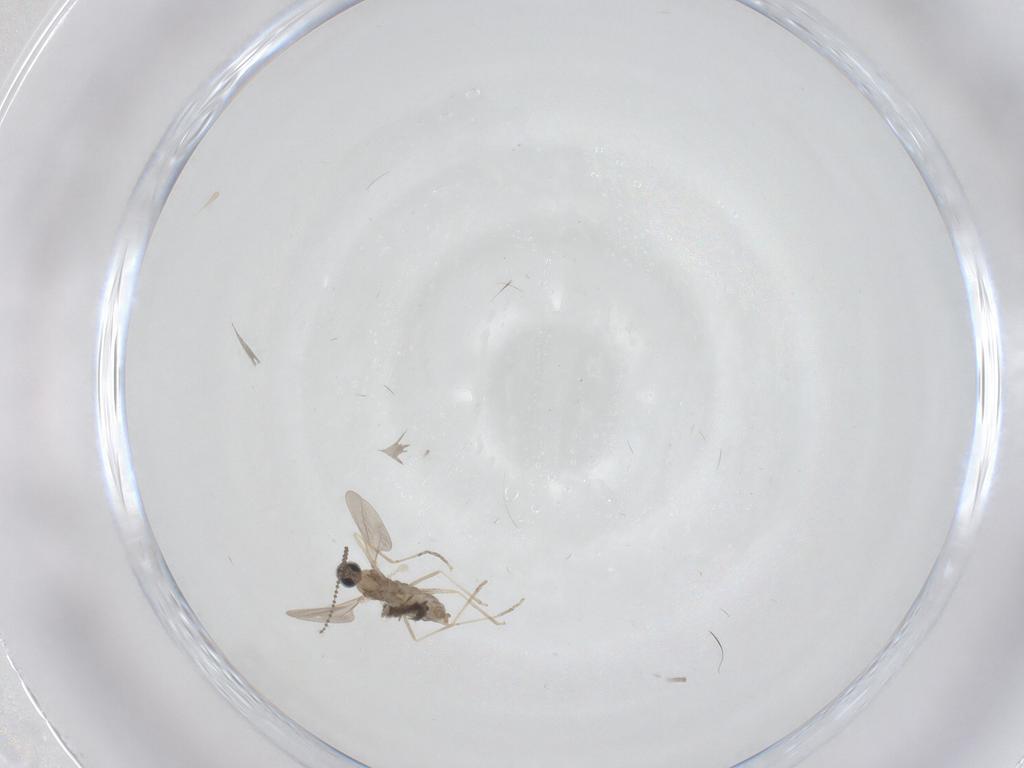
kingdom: Animalia
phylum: Arthropoda
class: Insecta
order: Diptera
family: Cecidomyiidae
